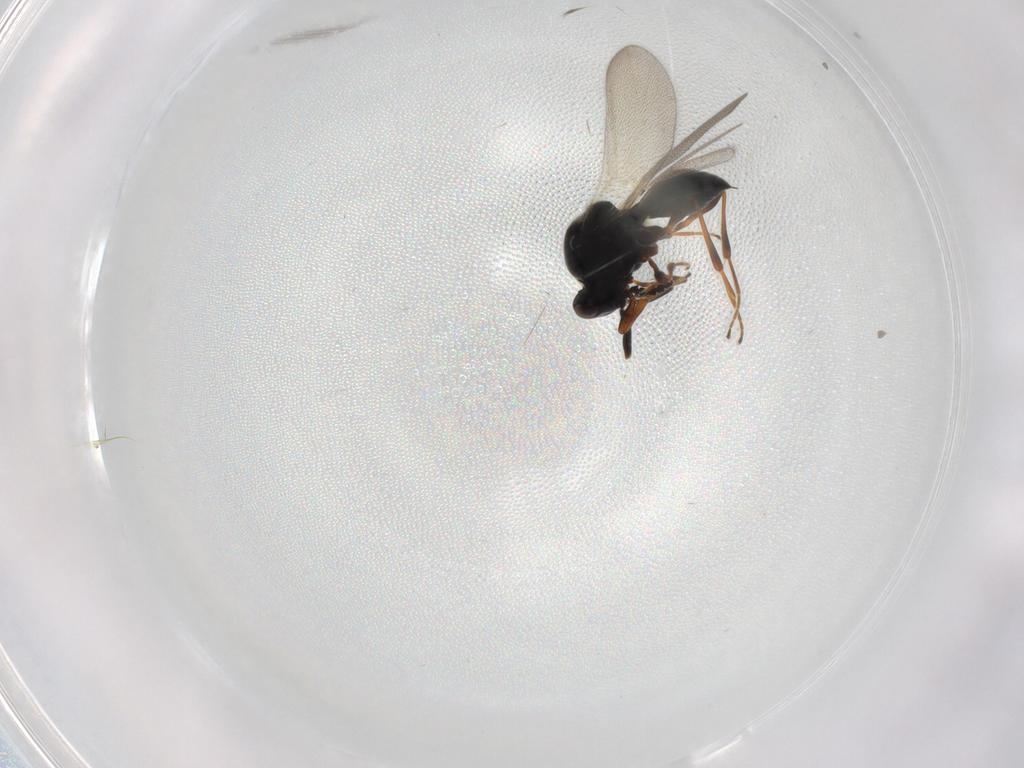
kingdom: Animalia
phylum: Arthropoda
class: Insecta
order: Hymenoptera
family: Platygastridae
